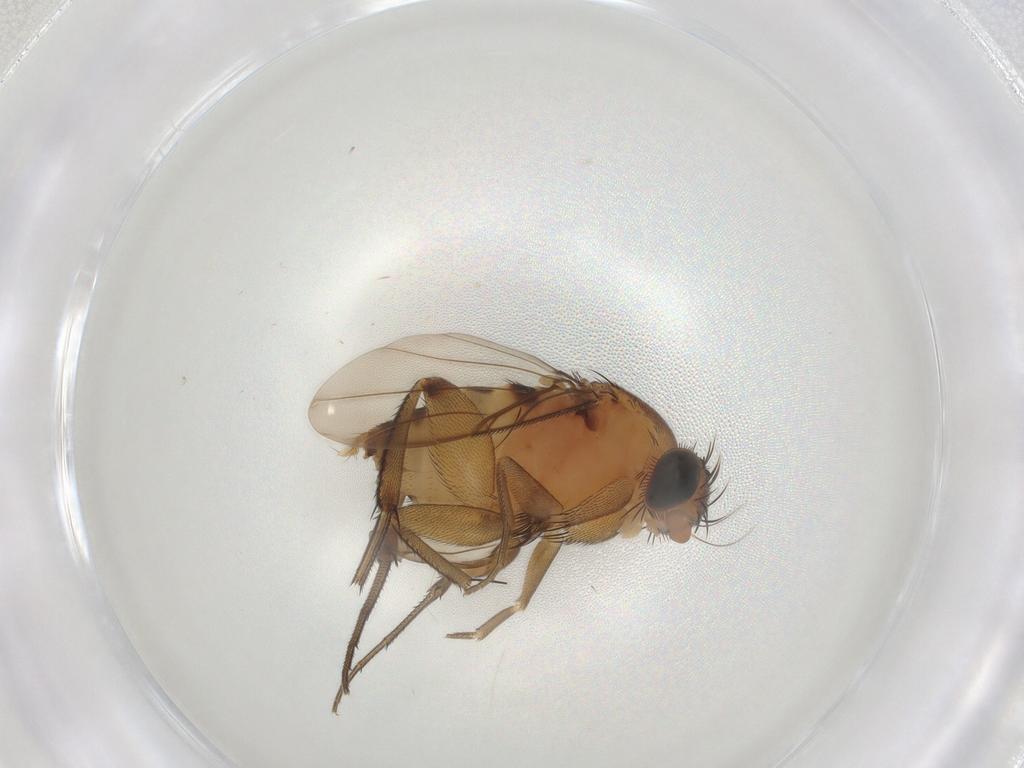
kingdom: Animalia
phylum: Arthropoda
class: Insecta
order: Diptera
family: Phoridae
